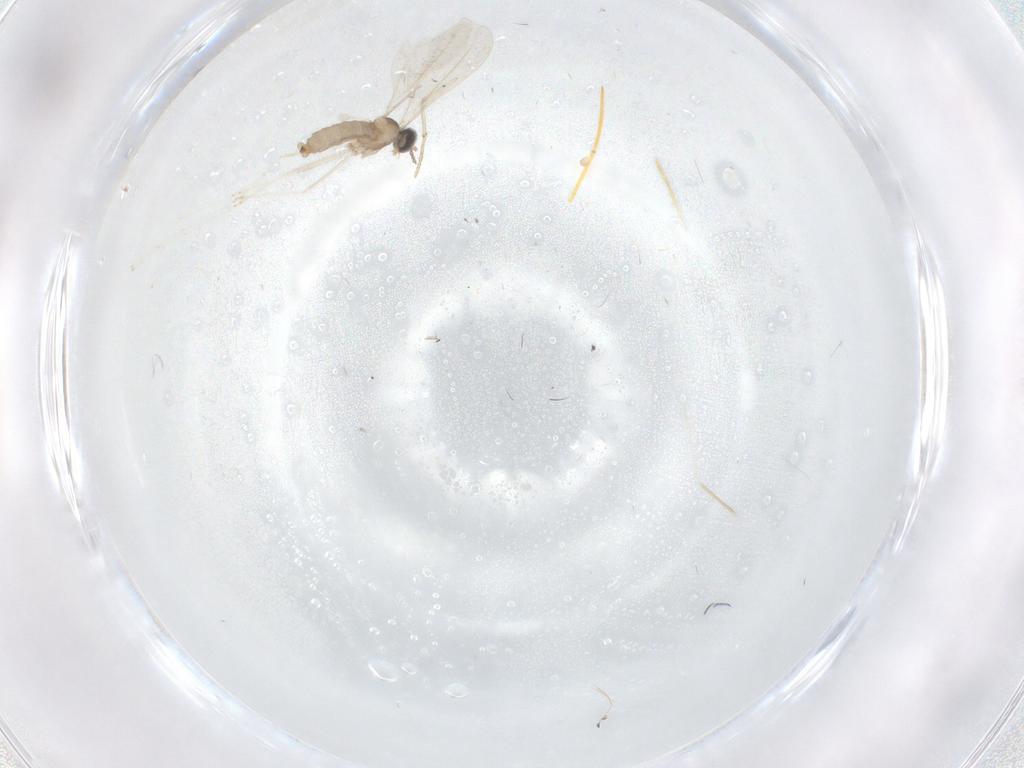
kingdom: Animalia
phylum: Arthropoda
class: Insecta
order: Diptera
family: Cecidomyiidae
